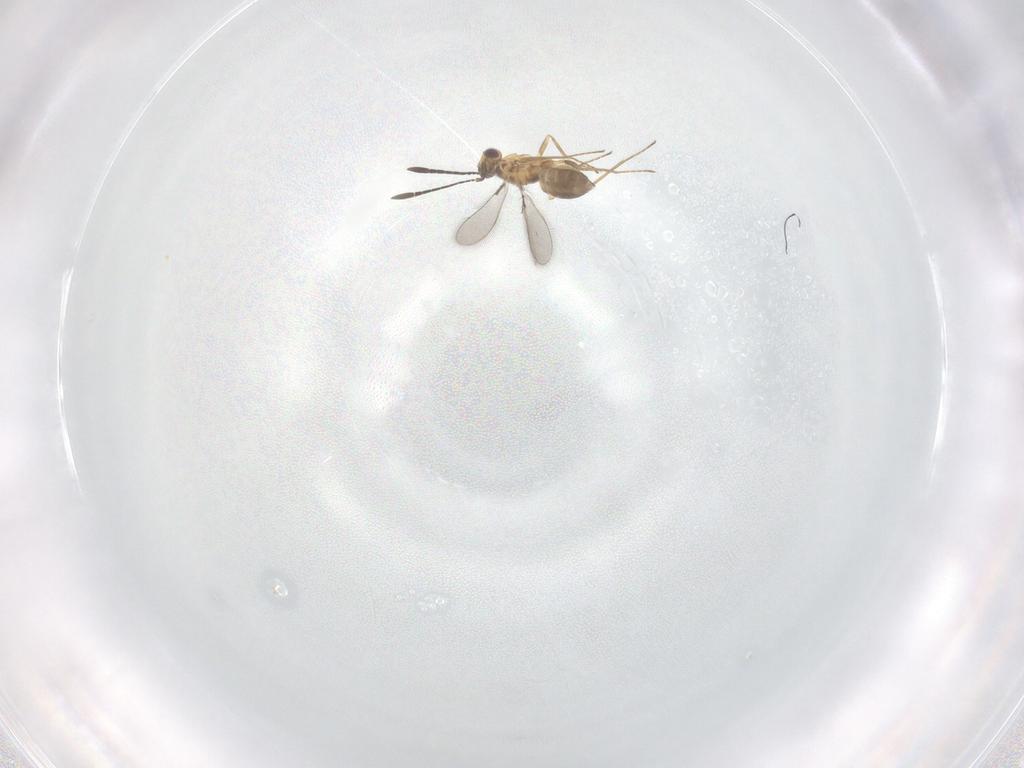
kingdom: Animalia
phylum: Arthropoda
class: Insecta
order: Hymenoptera
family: Mymaridae
